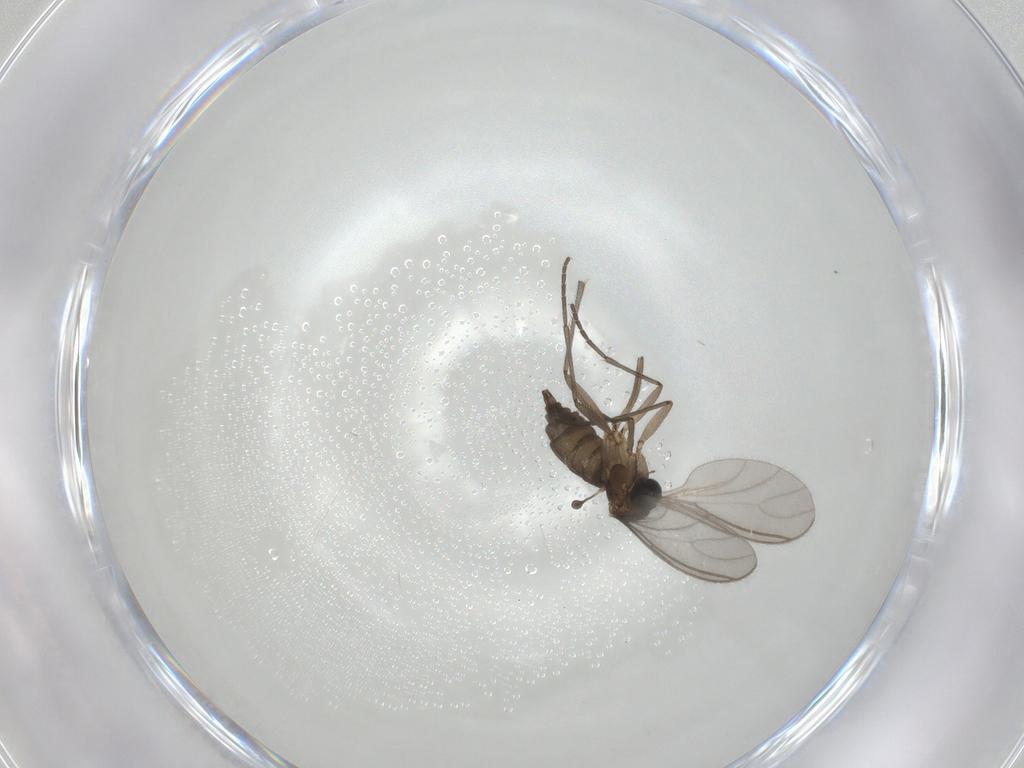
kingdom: Animalia
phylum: Arthropoda
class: Insecta
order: Diptera
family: Sciaridae
